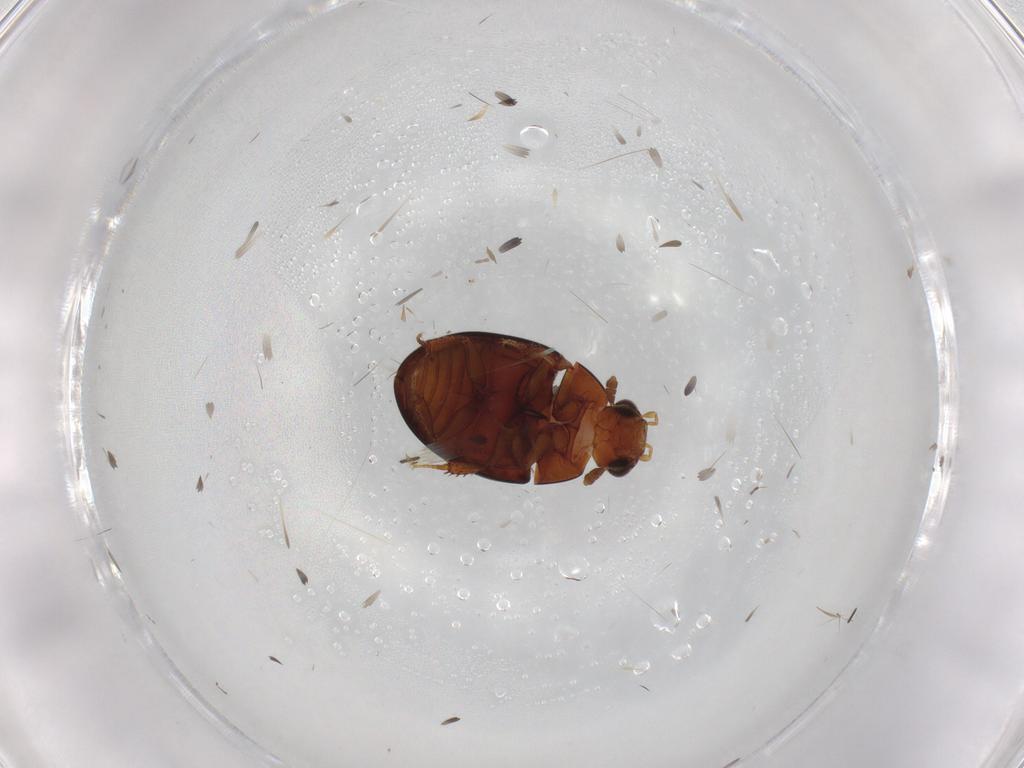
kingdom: Animalia
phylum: Arthropoda
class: Insecta
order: Coleoptera
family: Hydrophilidae
